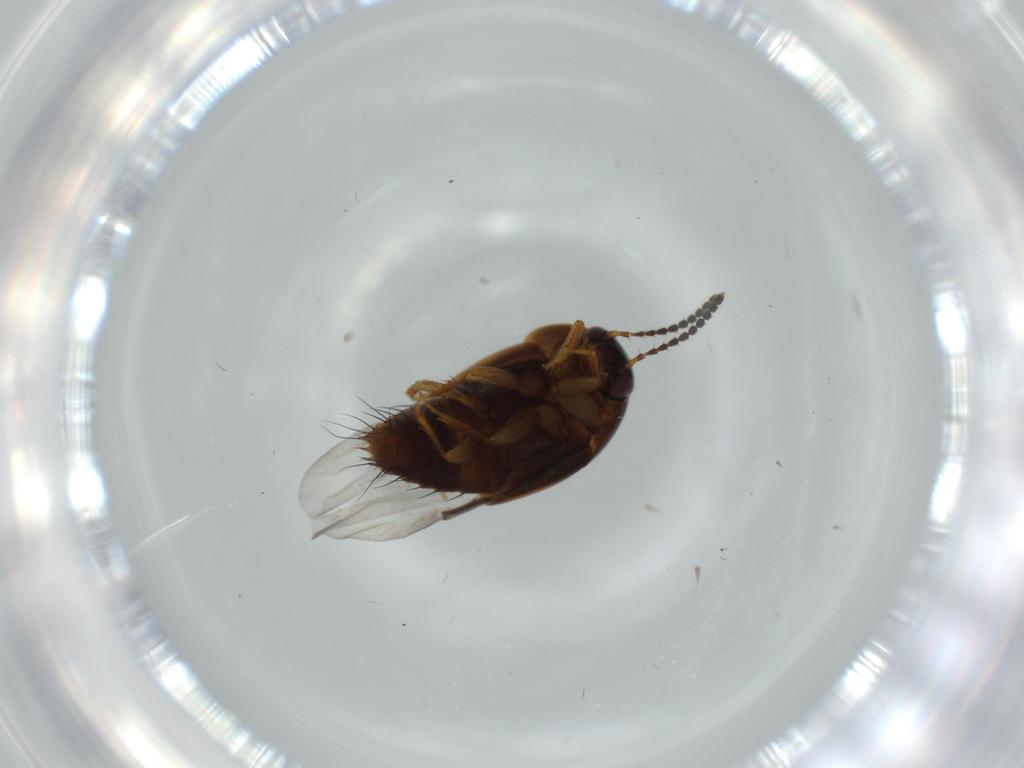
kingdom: Animalia
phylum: Arthropoda
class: Insecta
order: Coleoptera
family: Staphylinidae
